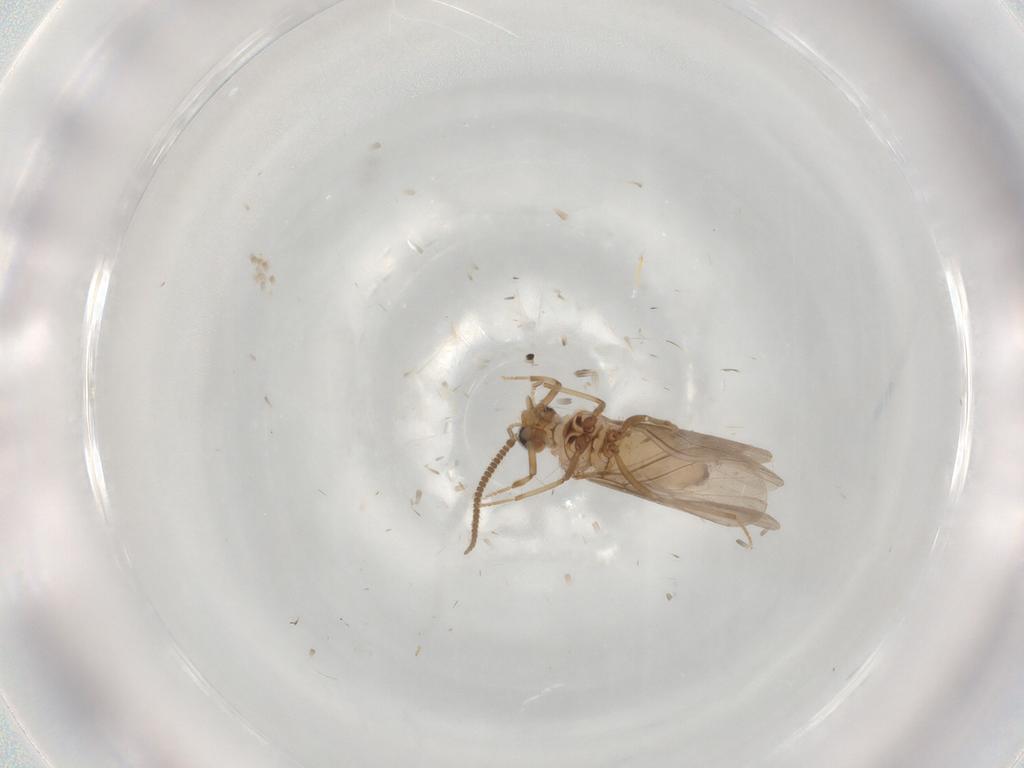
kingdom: Animalia
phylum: Arthropoda
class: Insecta
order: Neuroptera
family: Coniopterygidae
